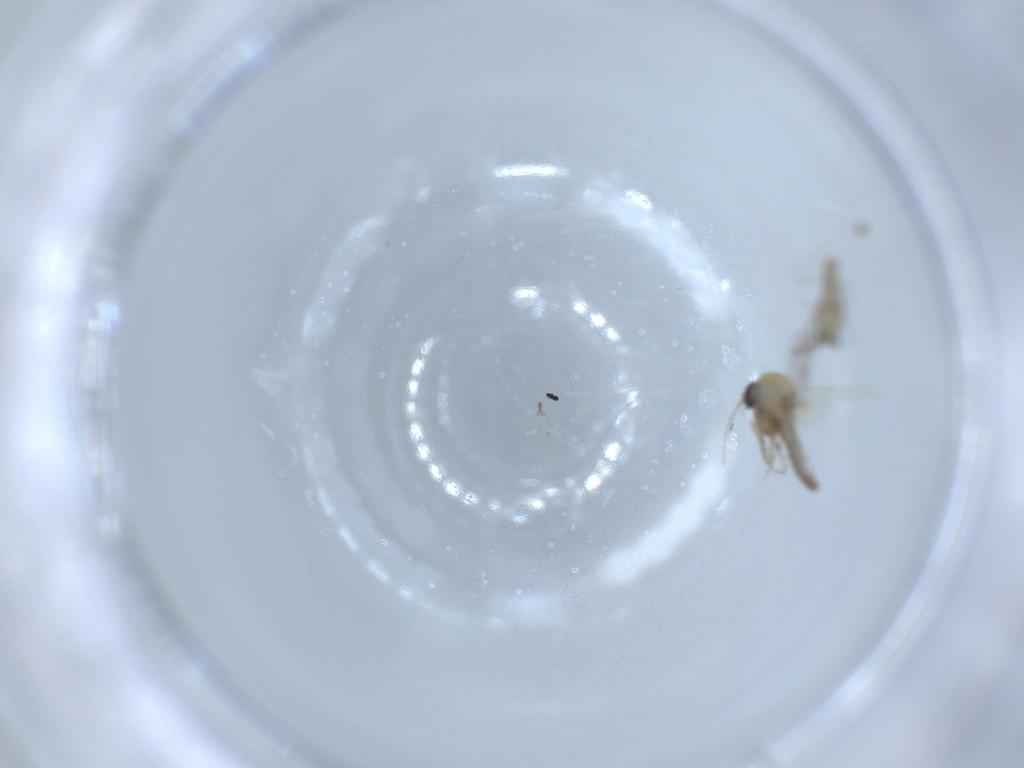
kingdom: Animalia
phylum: Arthropoda
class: Insecta
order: Diptera
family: Cecidomyiidae
